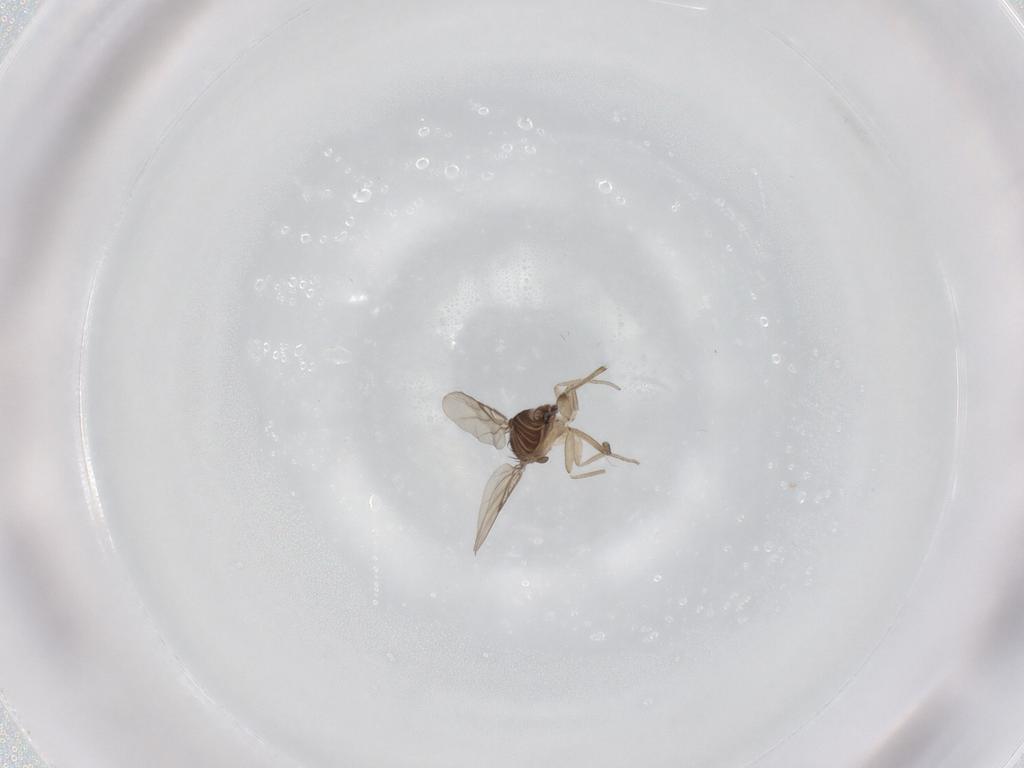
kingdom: Animalia
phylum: Arthropoda
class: Insecta
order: Diptera
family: Phoridae
